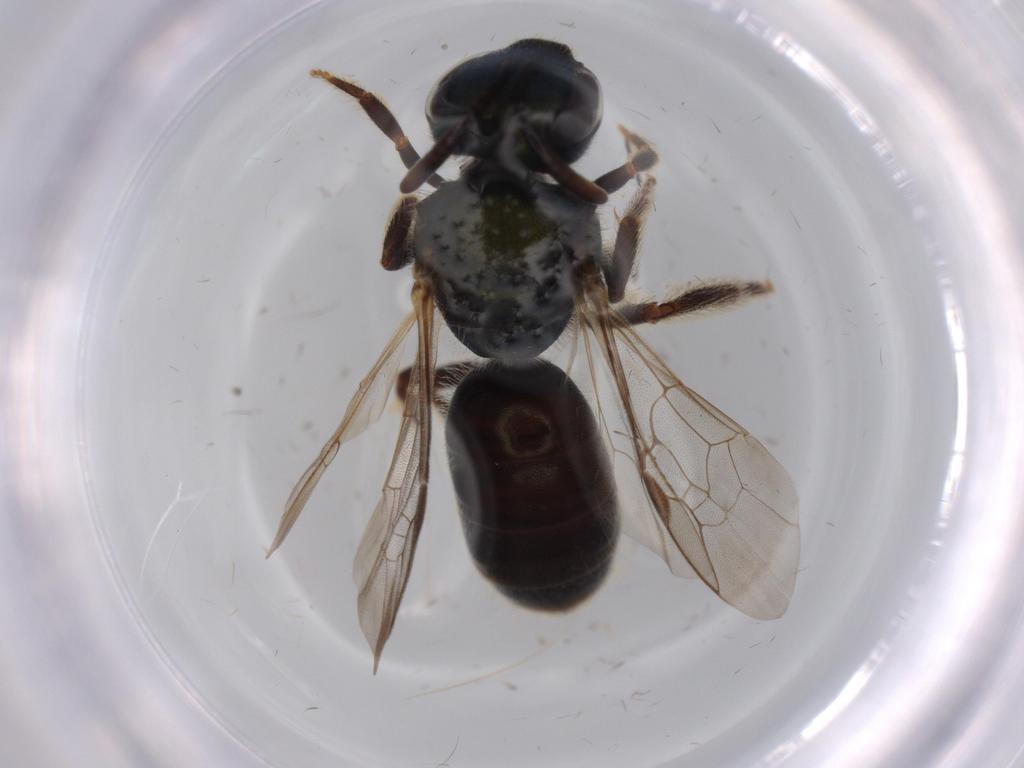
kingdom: Animalia
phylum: Arthropoda
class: Insecta
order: Hymenoptera
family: Halictidae
